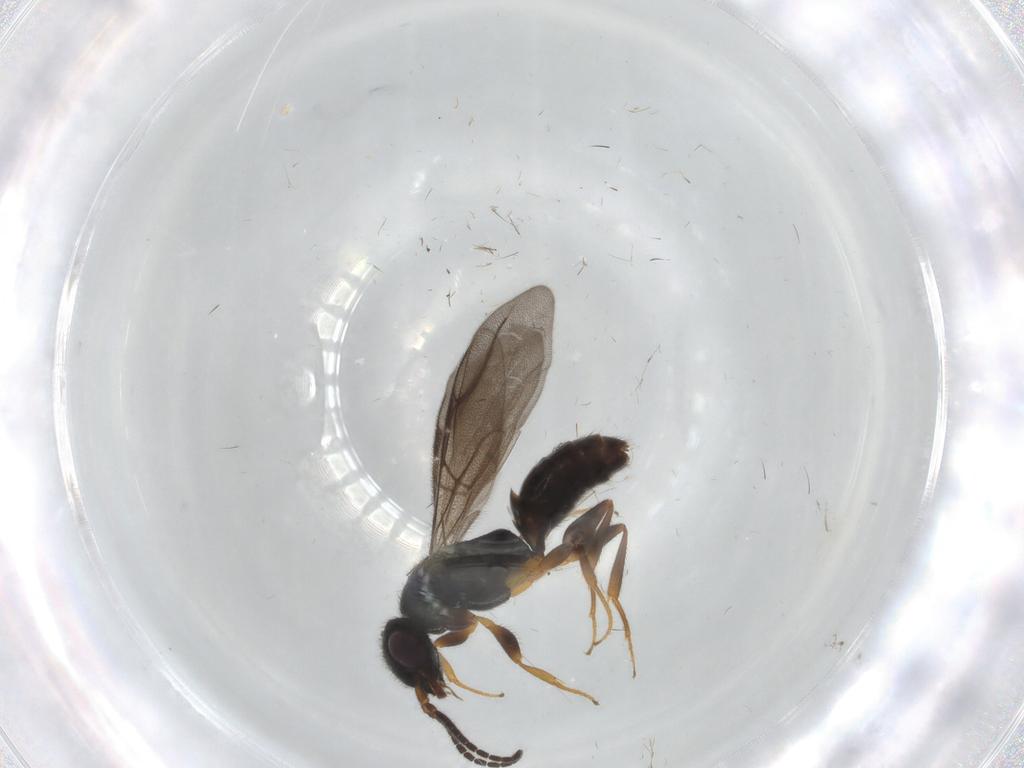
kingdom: Animalia
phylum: Arthropoda
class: Insecta
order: Hymenoptera
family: Bethylidae
